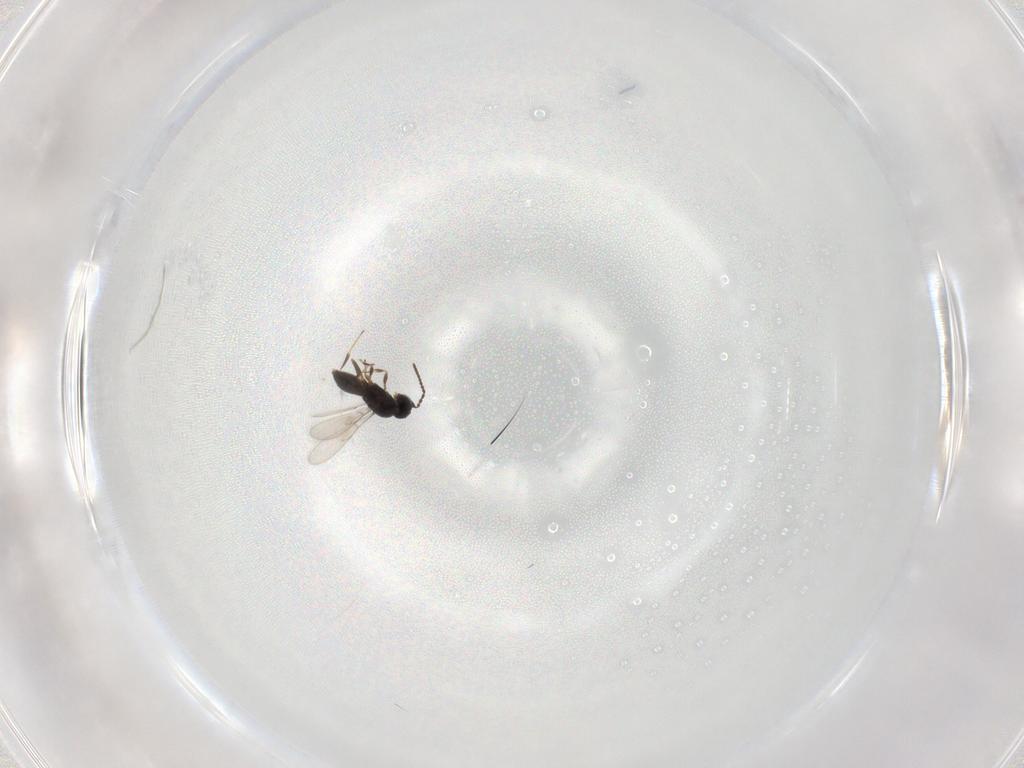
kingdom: Animalia
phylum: Arthropoda
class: Insecta
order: Hymenoptera
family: Scelionidae
